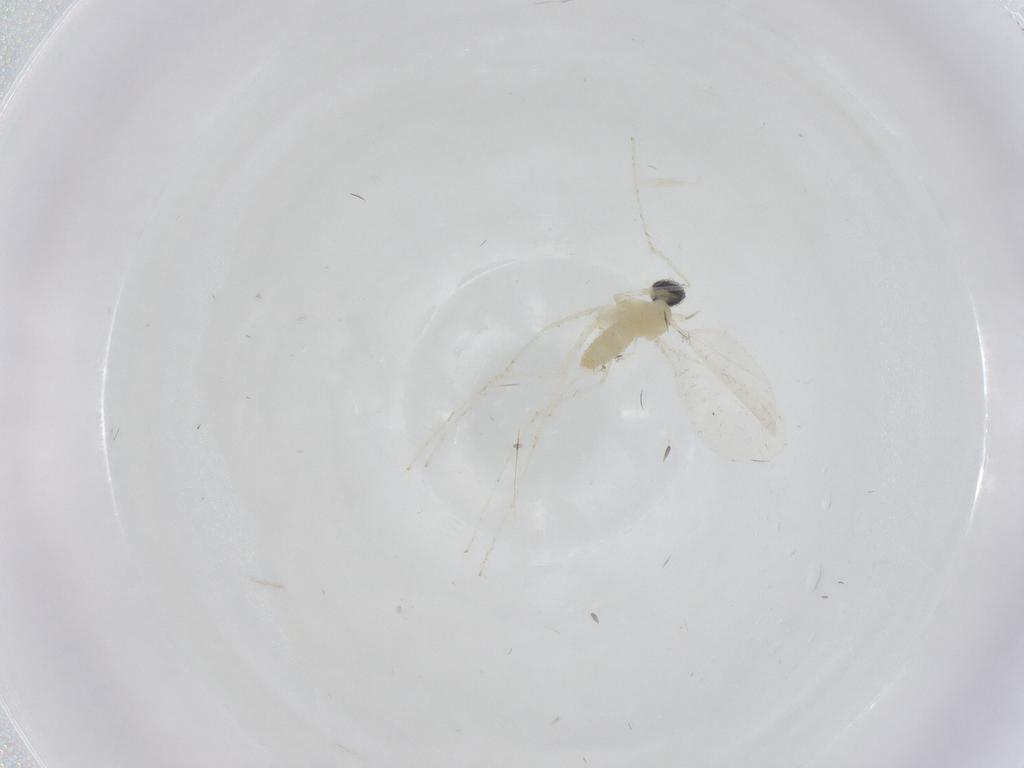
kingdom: Animalia
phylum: Arthropoda
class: Insecta
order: Diptera
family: Cecidomyiidae
